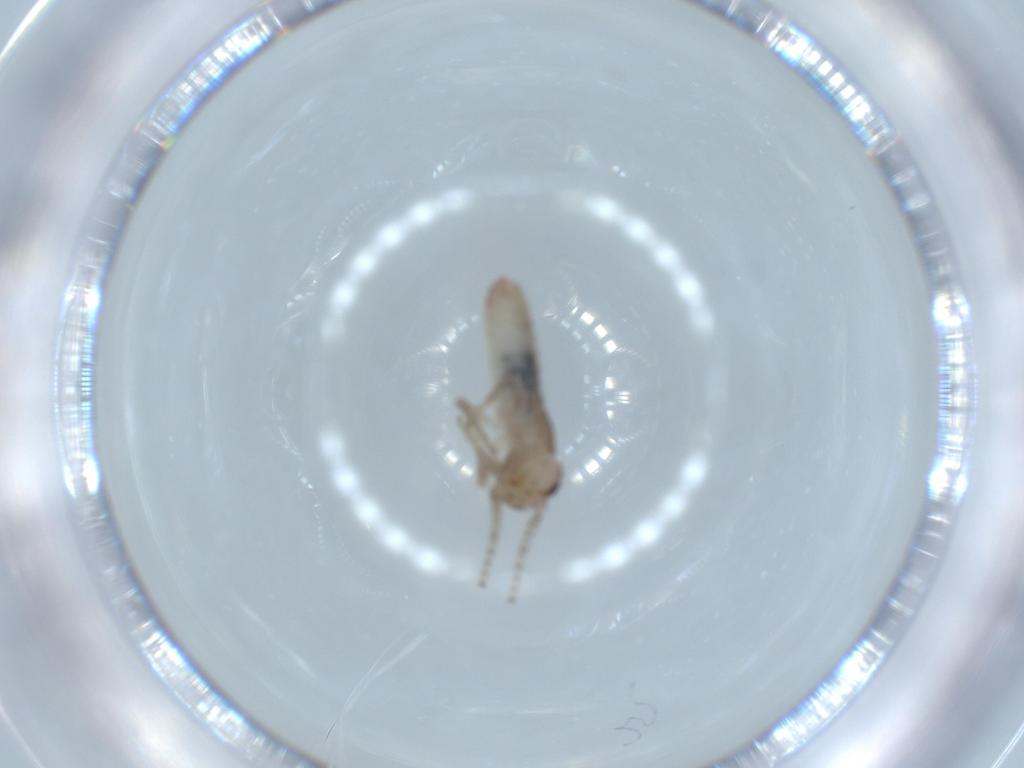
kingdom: Animalia
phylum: Arthropoda
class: Insecta
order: Orthoptera
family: Mogoplistidae
